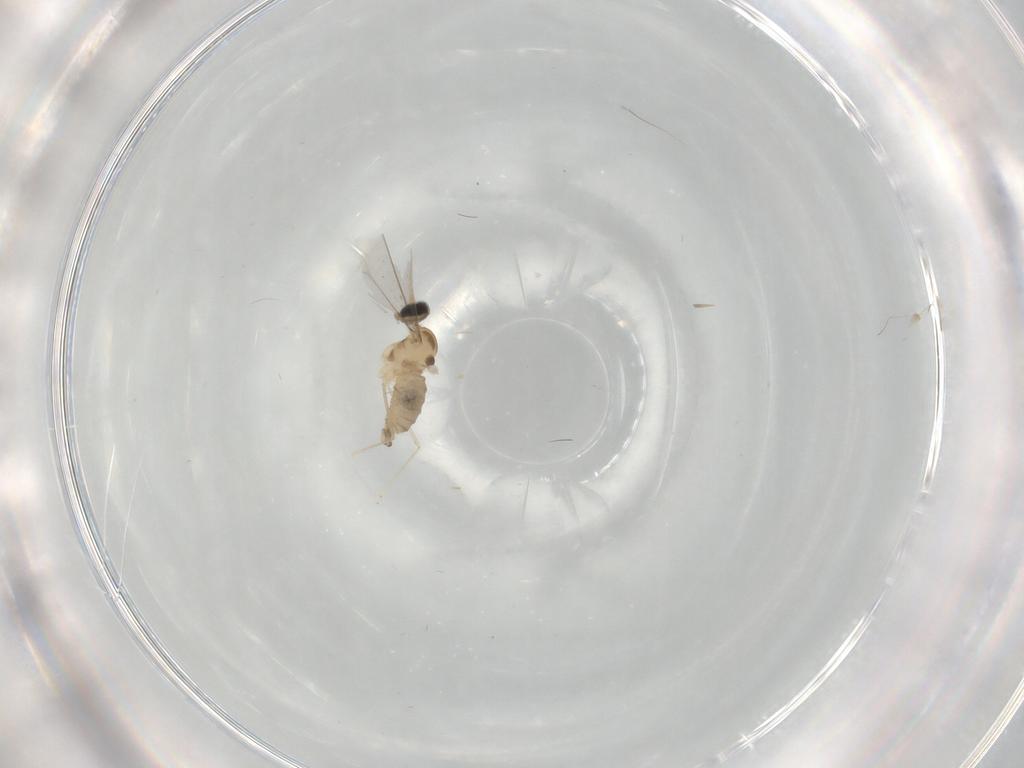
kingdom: Animalia
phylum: Arthropoda
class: Insecta
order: Diptera
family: Cecidomyiidae
